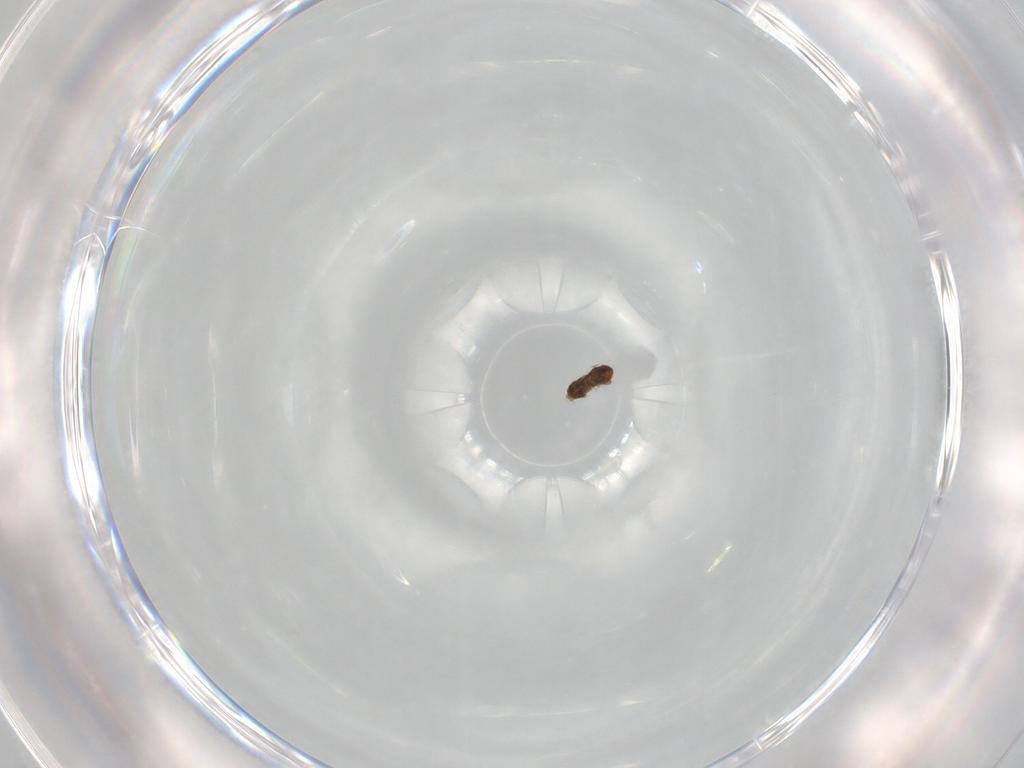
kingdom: Animalia
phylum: Arthropoda
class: Insecta
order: Hymenoptera
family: Trichogrammatidae
